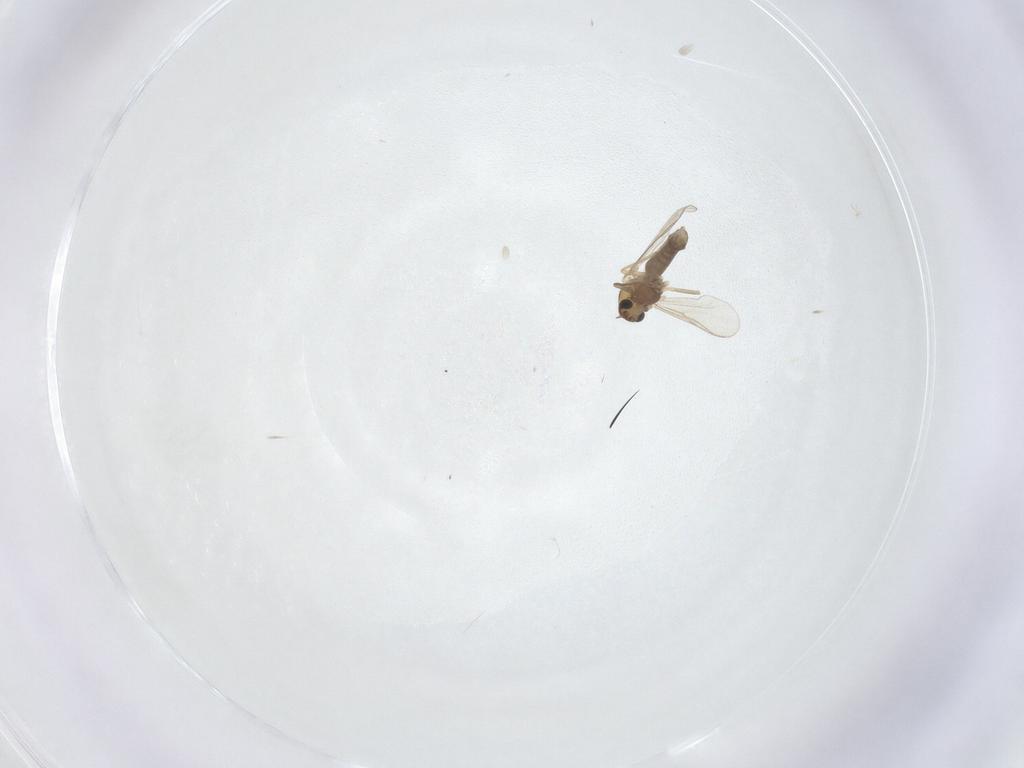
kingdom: Animalia
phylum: Arthropoda
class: Insecta
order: Diptera
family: Chironomidae
